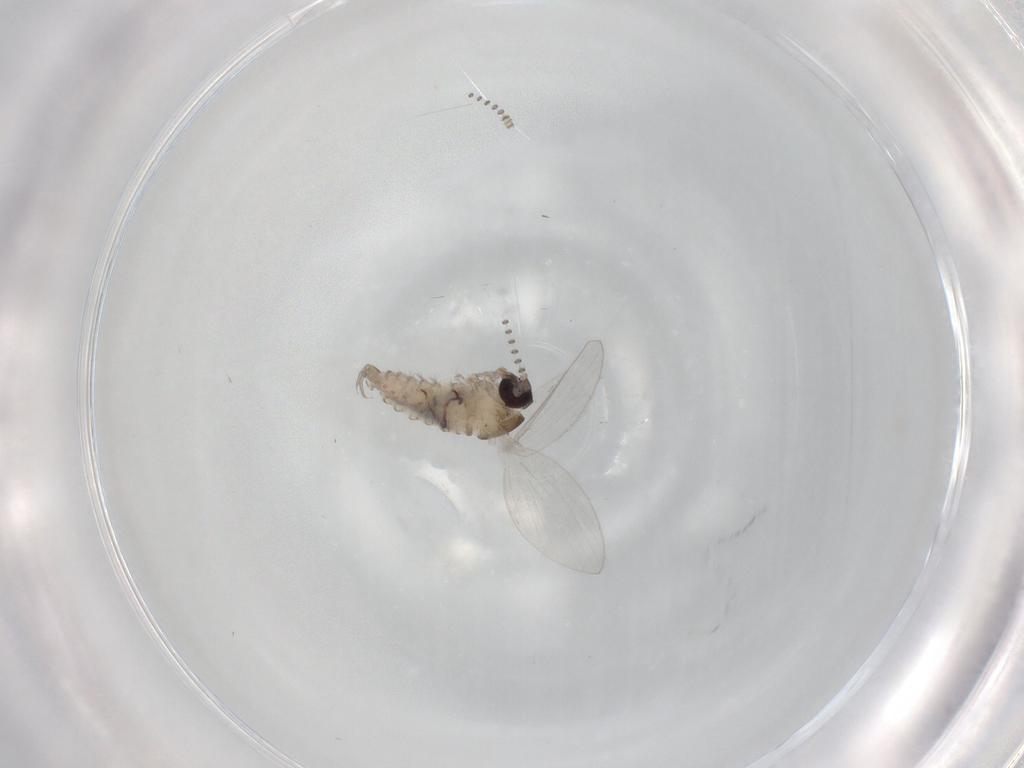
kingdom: Animalia
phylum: Arthropoda
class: Insecta
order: Diptera
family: Psychodidae
